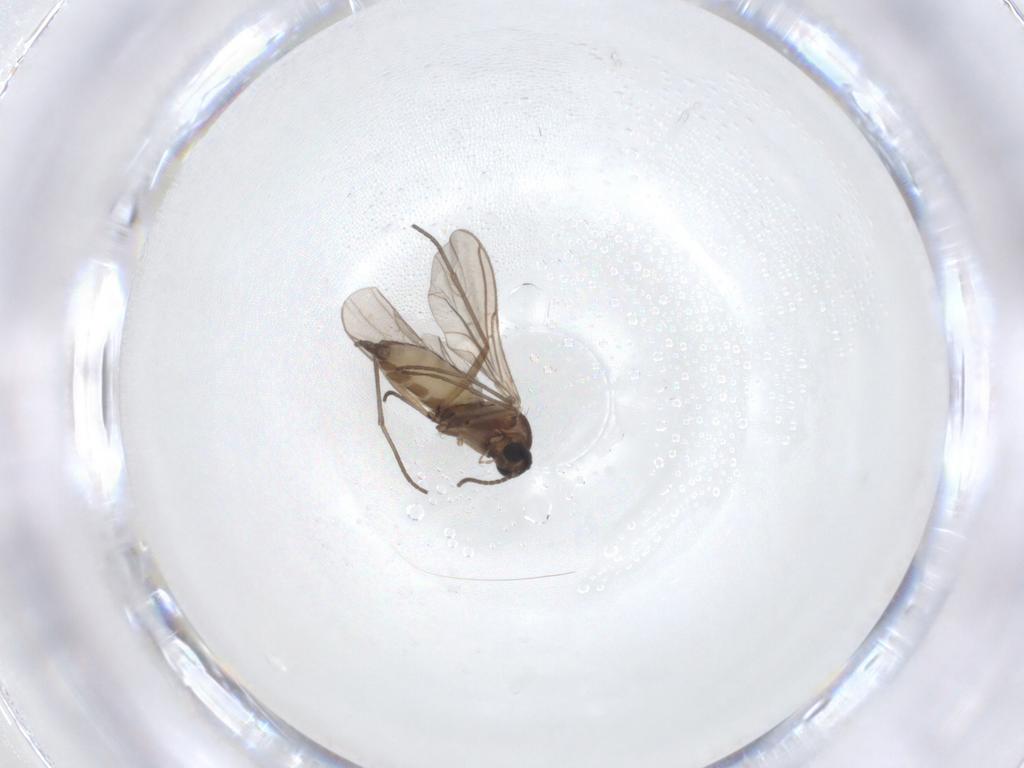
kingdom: Animalia
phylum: Arthropoda
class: Insecta
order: Diptera
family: Sciaridae
